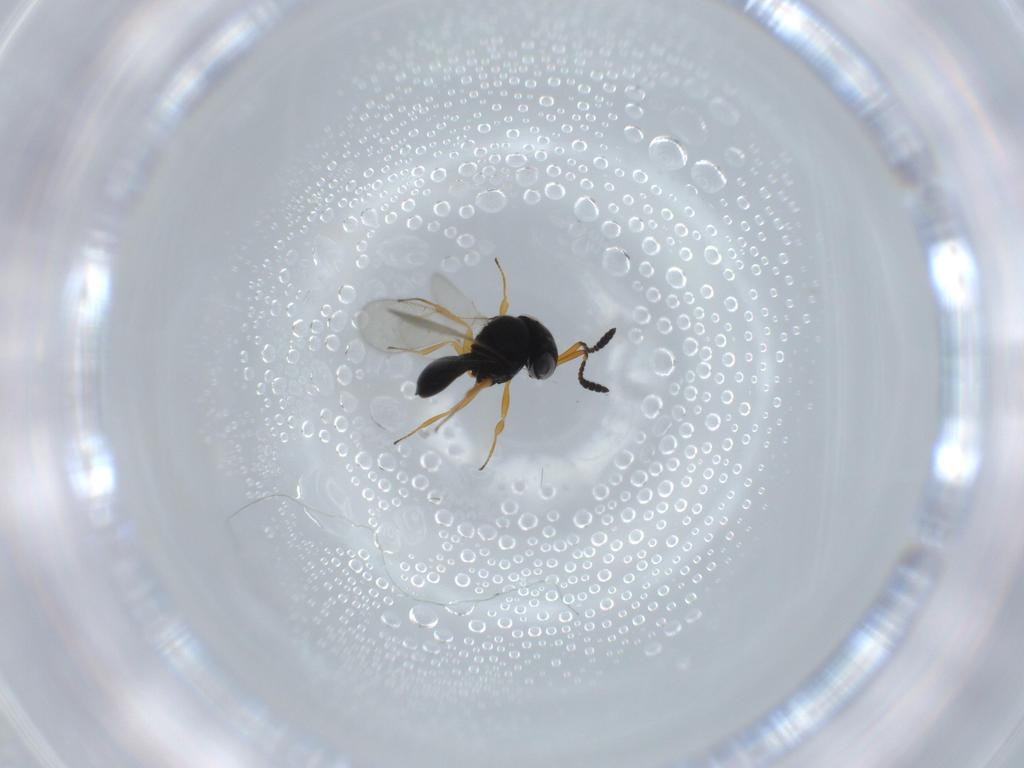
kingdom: Animalia
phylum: Arthropoda
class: Insecta
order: Hymenoptera
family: Scelionidae
